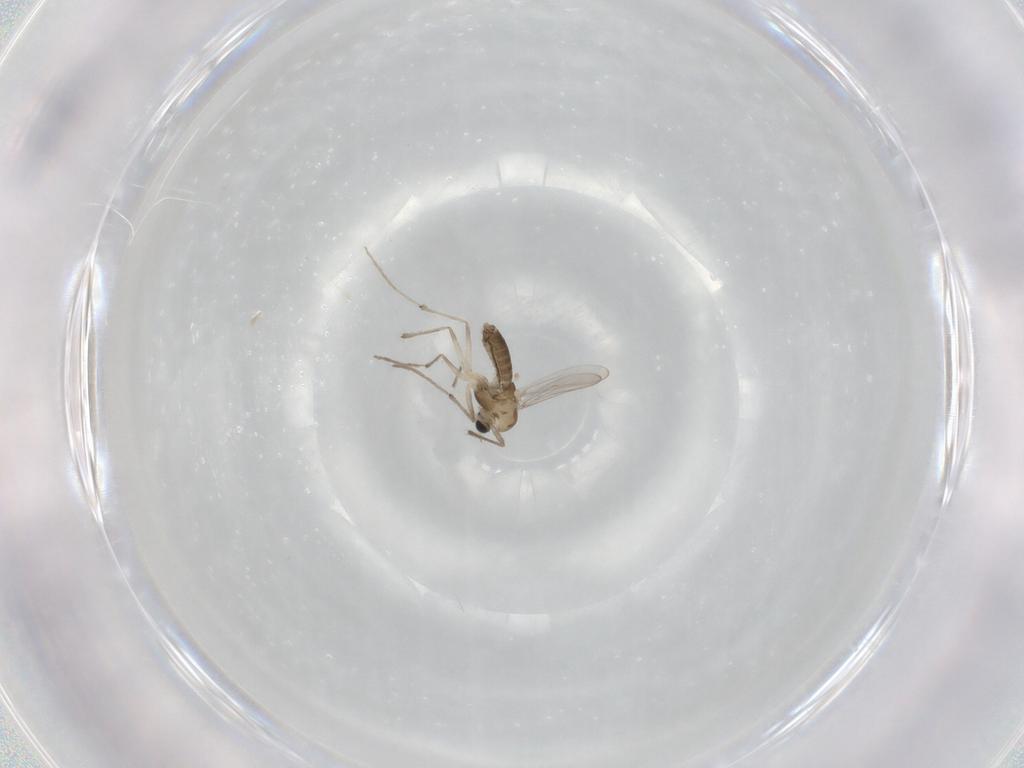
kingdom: Animalia
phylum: Arthropoda
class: Insecta
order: Diptera
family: Chironomidae
